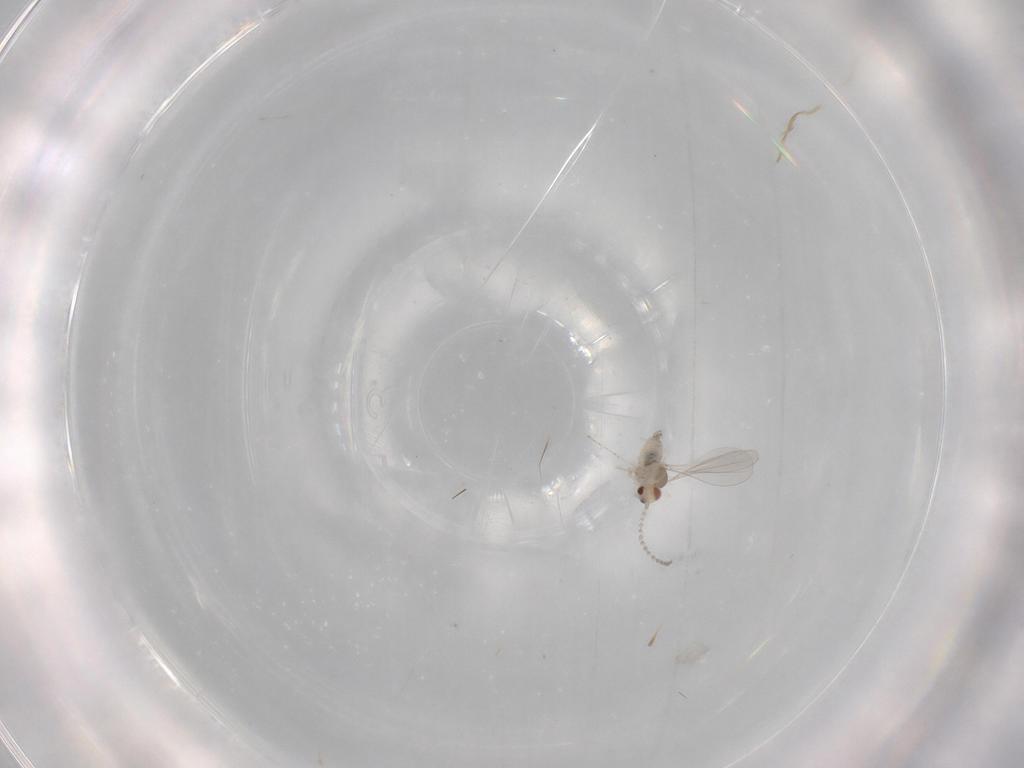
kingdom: Animalia
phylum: Arthropoda
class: Insecta
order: Diptera
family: Cecidomyiidae
